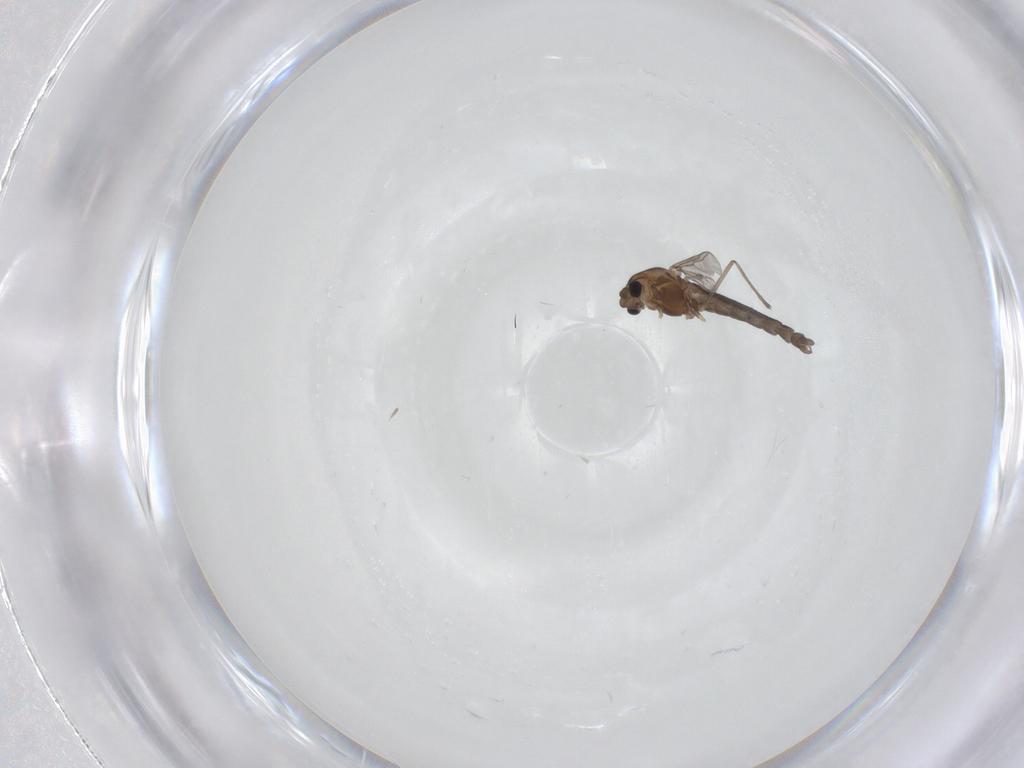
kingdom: Animalia
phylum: Arthropoda
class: Insecta
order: Diptera
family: Chironomidae
